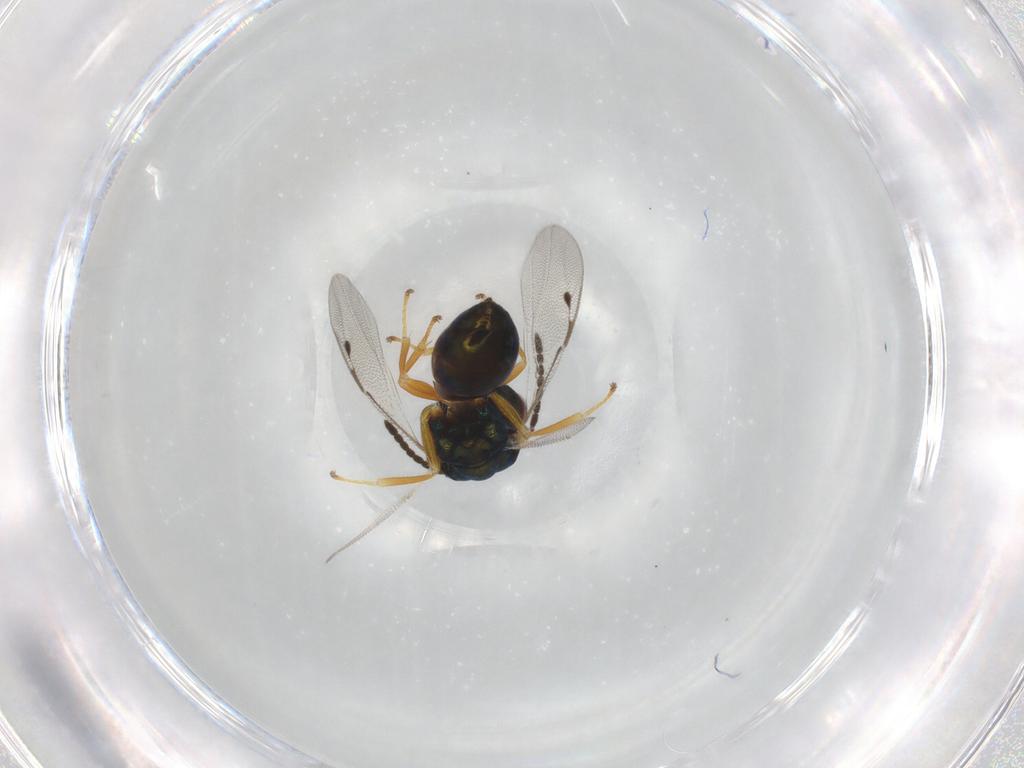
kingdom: Animalia
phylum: Arthropoda
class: Insecta
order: Hymenoptera
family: Pteromalidae
